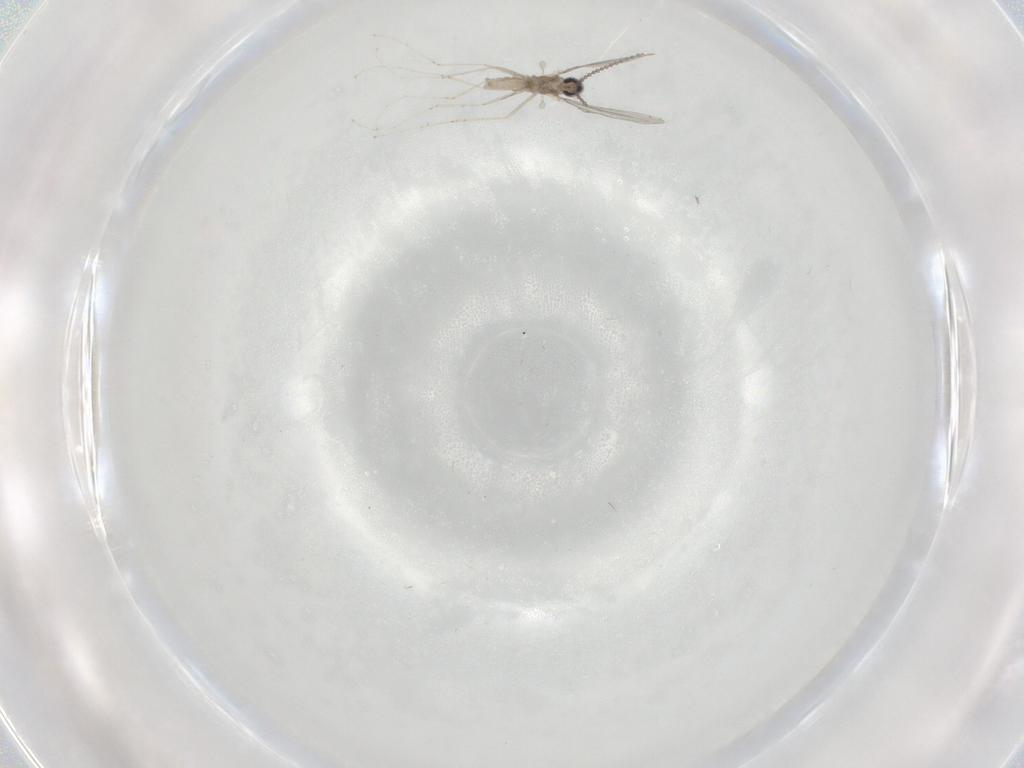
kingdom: Animalia
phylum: Arthropoda
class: Insecta
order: Diptera
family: Cecidomyiidae
